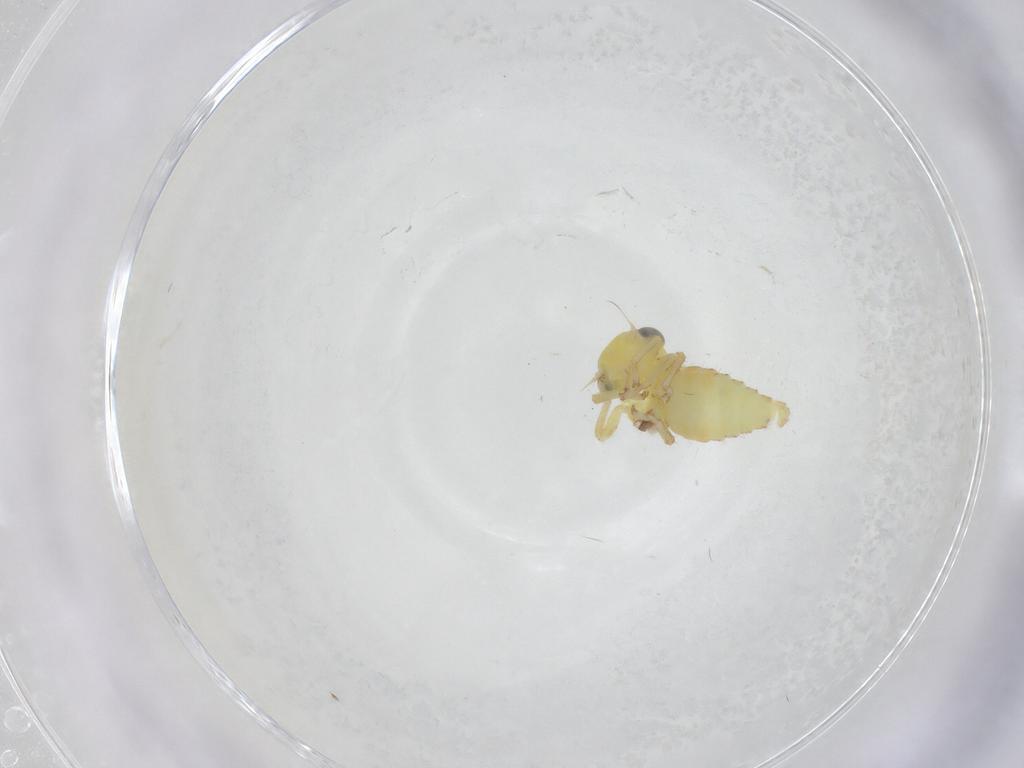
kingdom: Animalia
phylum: Arthropoda
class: Insecta
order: Hemiptera
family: Cicadellidae
